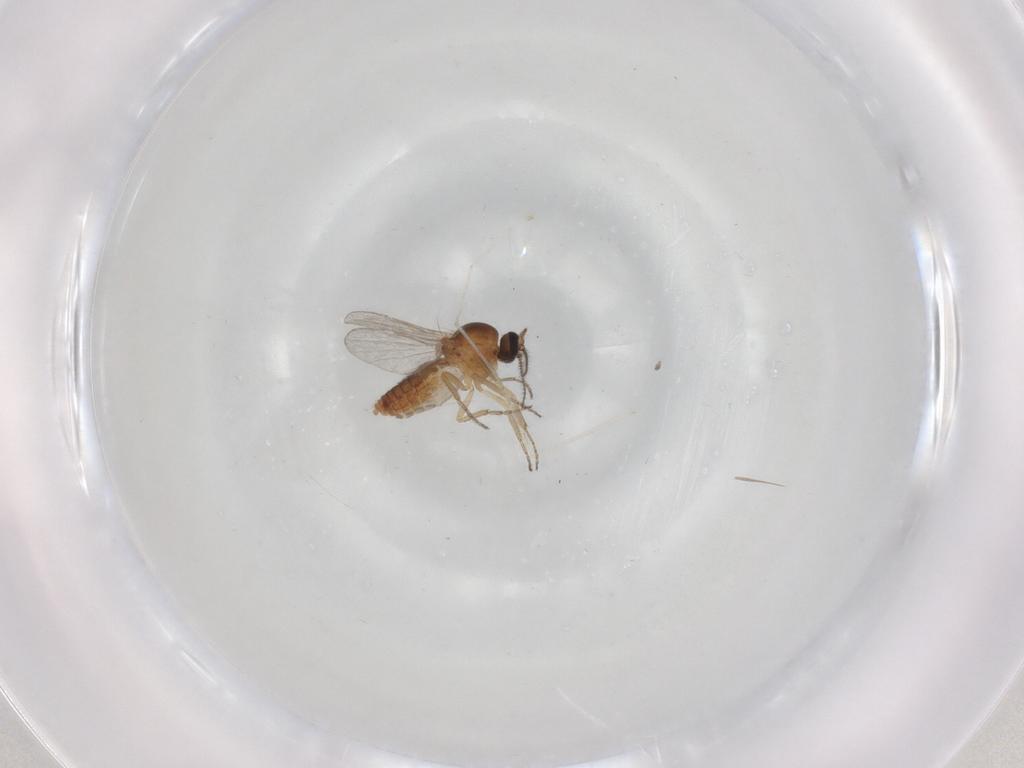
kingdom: Animalia
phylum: Arthropoda
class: Insecta
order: Diptera
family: Ceratopogonidae
